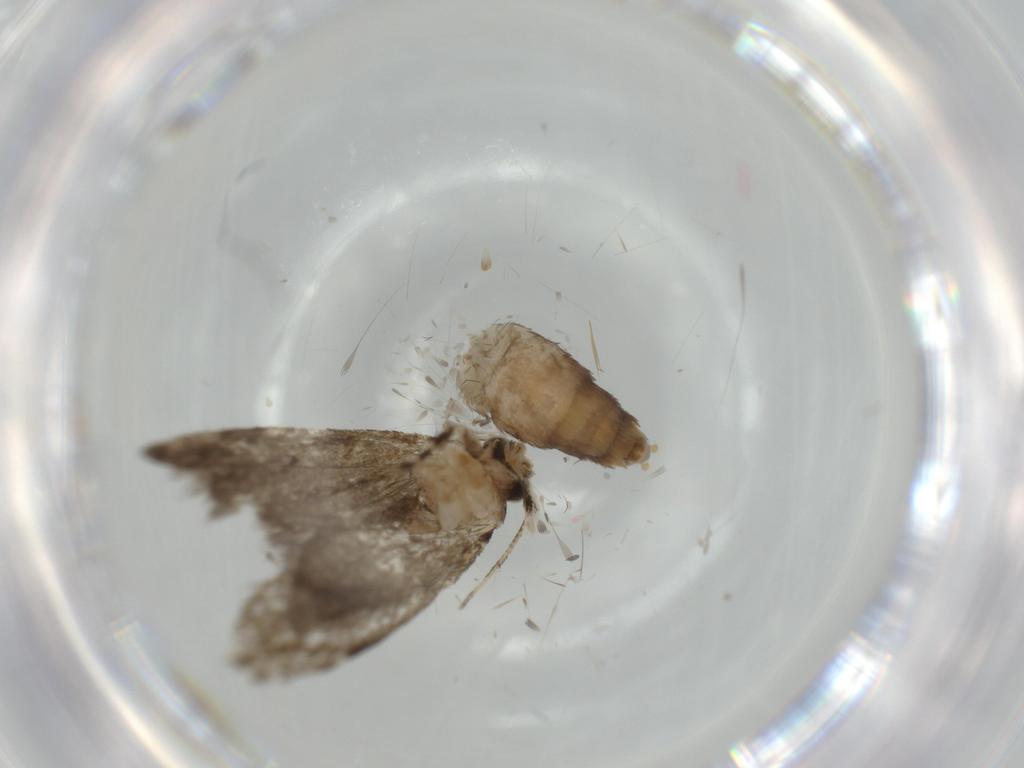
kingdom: Animalia
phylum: Arthropoda
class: Insecta
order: Lepidoptera
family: Tineidae
